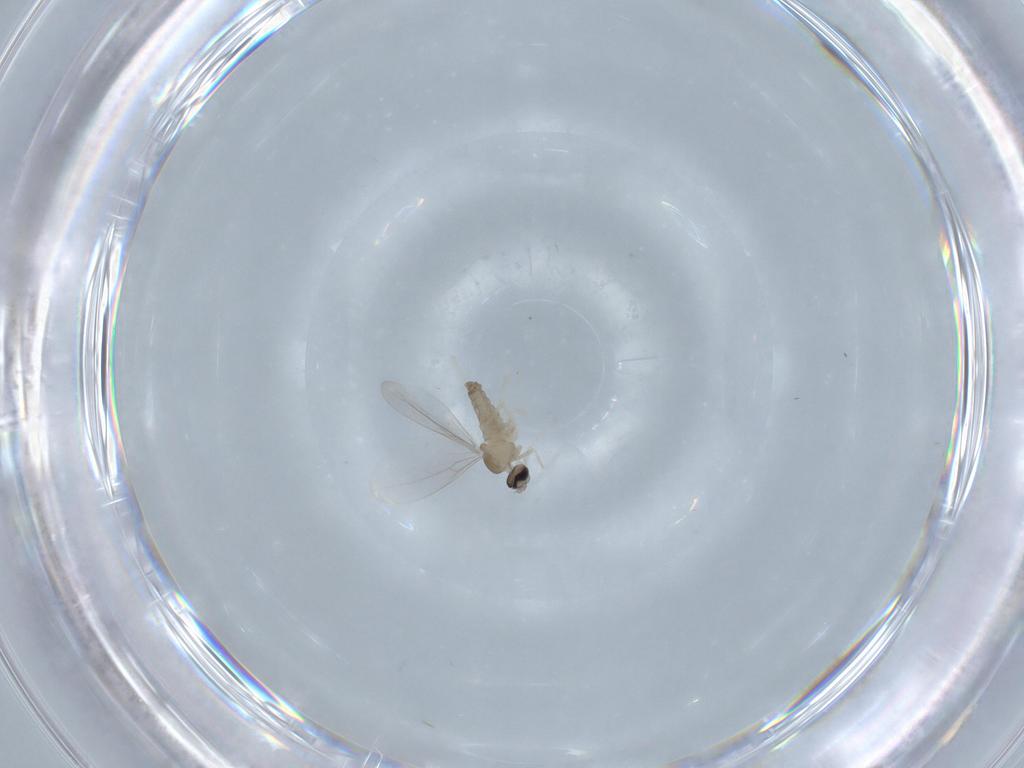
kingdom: Animalia
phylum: Arthropoda
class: Insecta
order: Diptera
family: Cecidomyiidae
